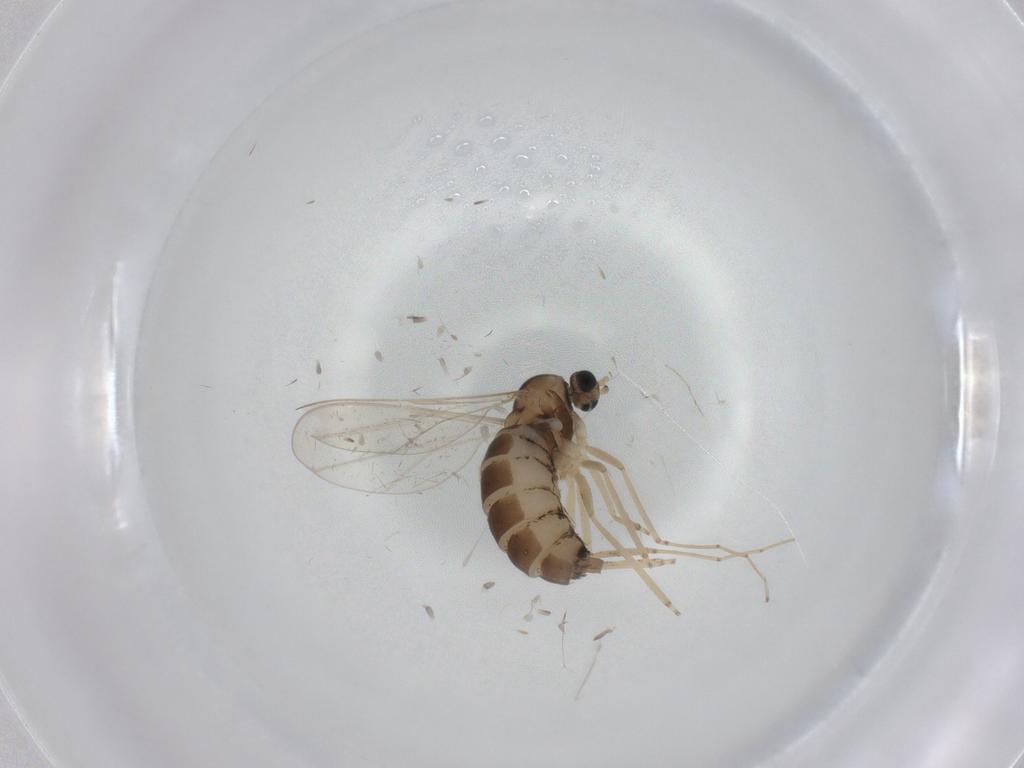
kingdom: Animalia
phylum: Arthropoda
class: Insecta
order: Diptera
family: Cecidomyiidae
